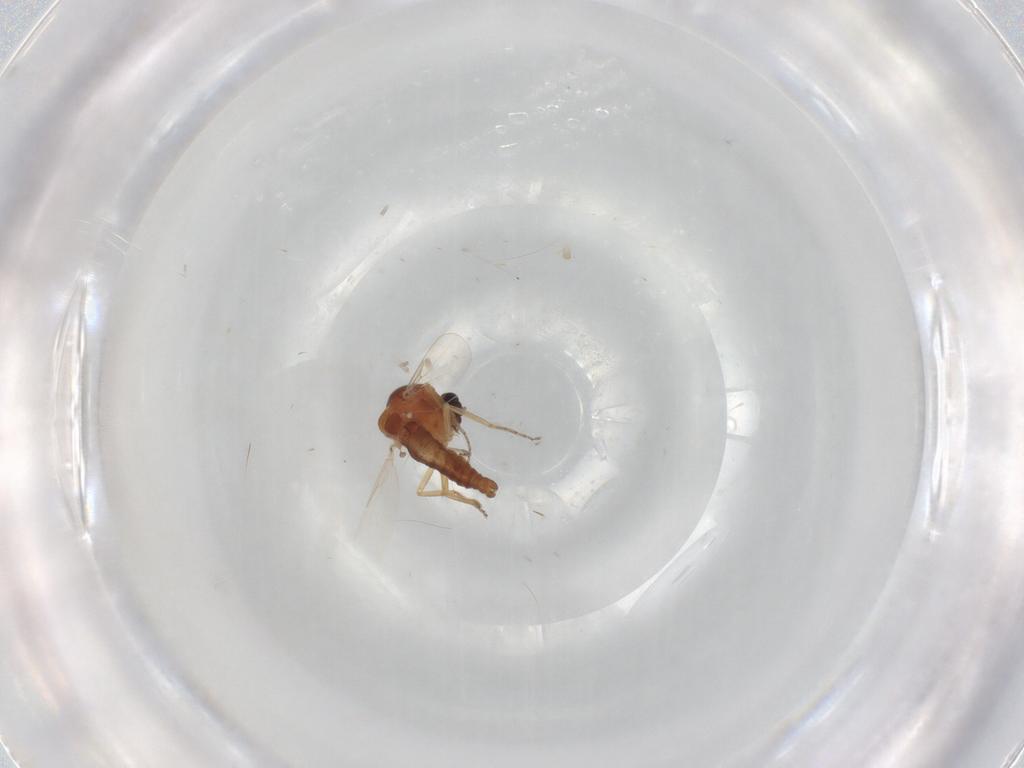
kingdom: Animalia
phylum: Arthropoda
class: Insecta
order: Diptera
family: Ceratopogonidae
